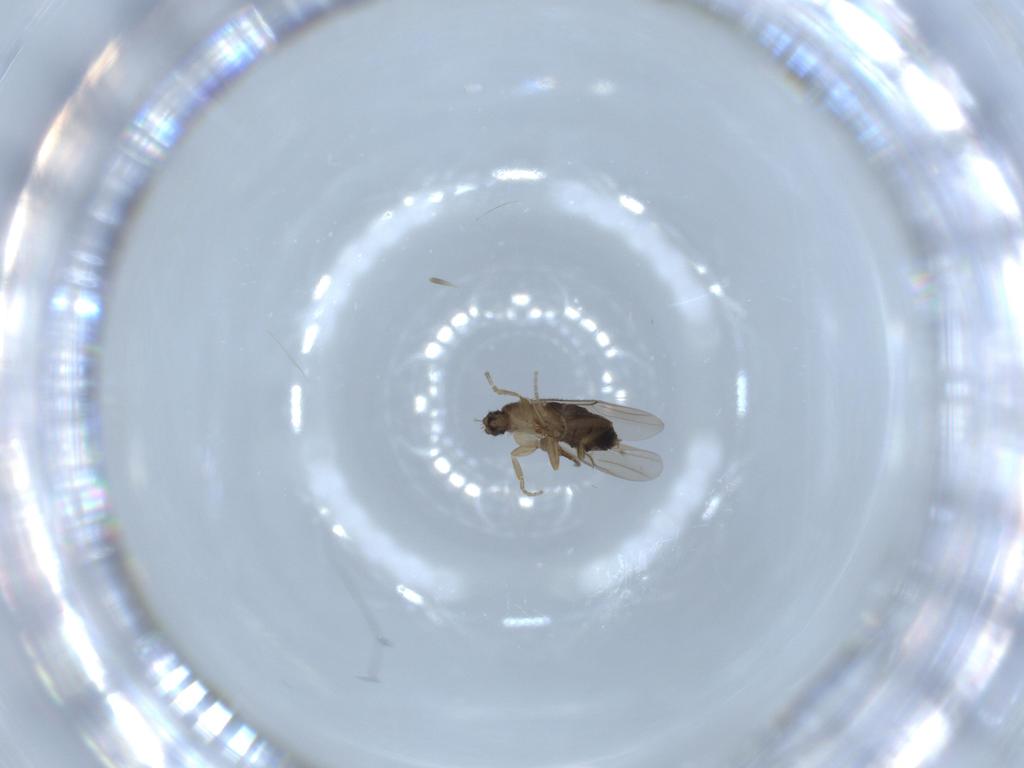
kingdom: Animalia
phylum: Arthropoda
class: Insecta
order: Diptera
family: Phoridae
